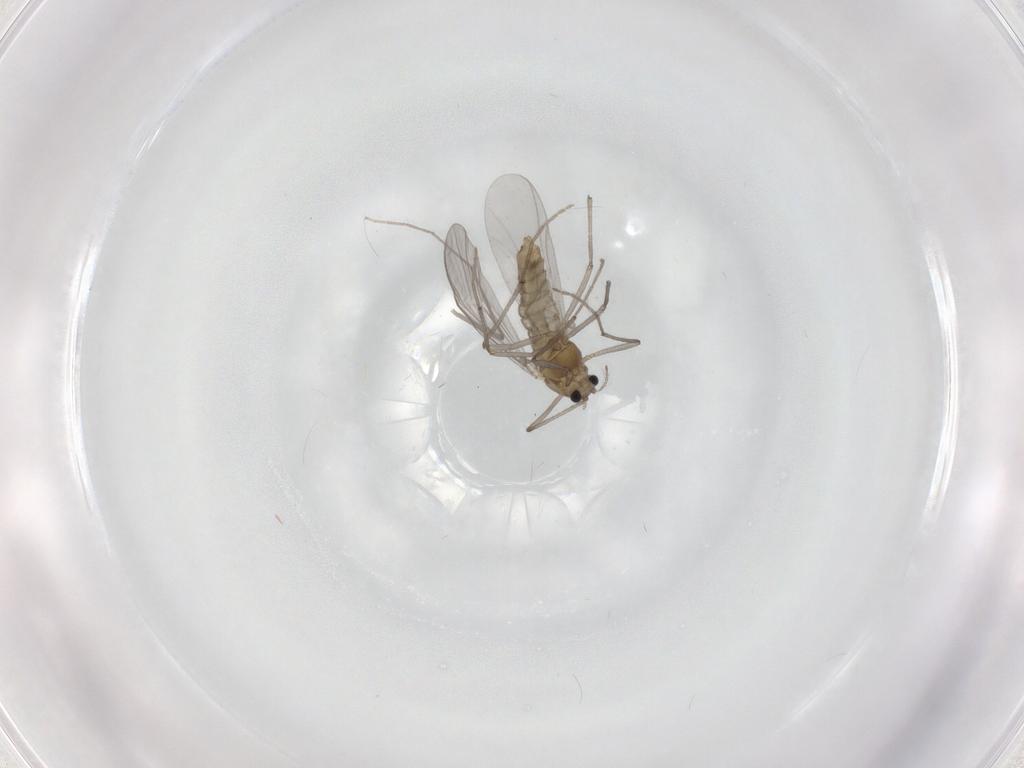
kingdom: Animalia
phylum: Arthropoda
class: Insecta
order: Diptera
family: Chironomidae
